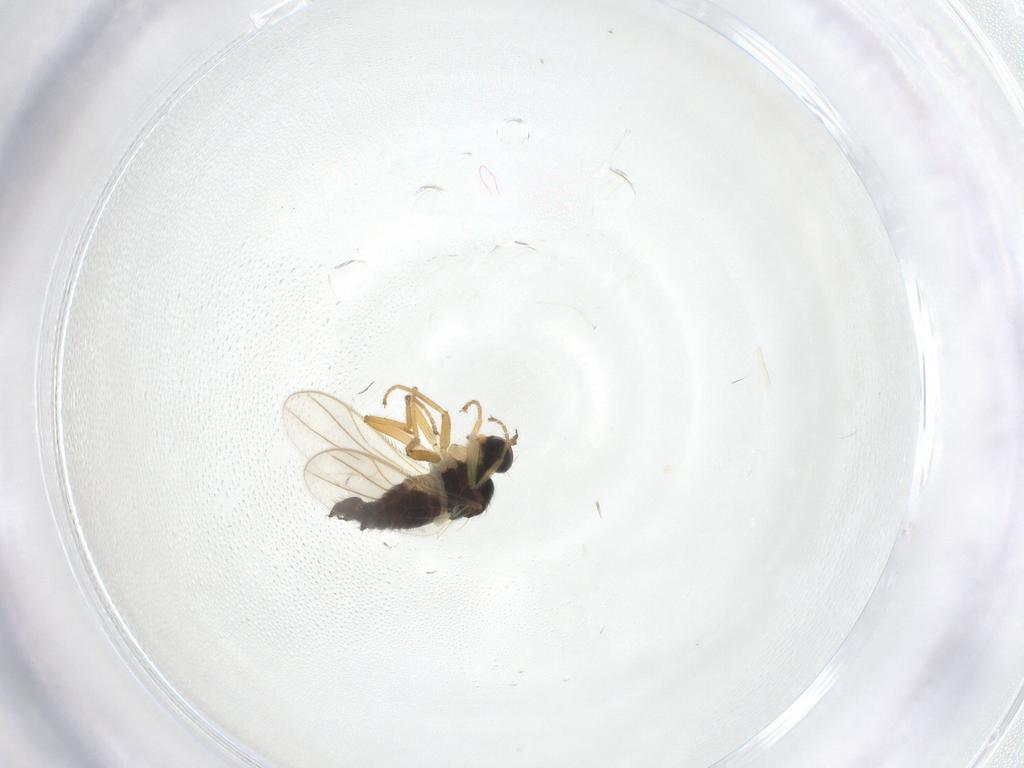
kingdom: Animalia
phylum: Arthropoda
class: Insecta
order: Diptera
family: Hybotidae
